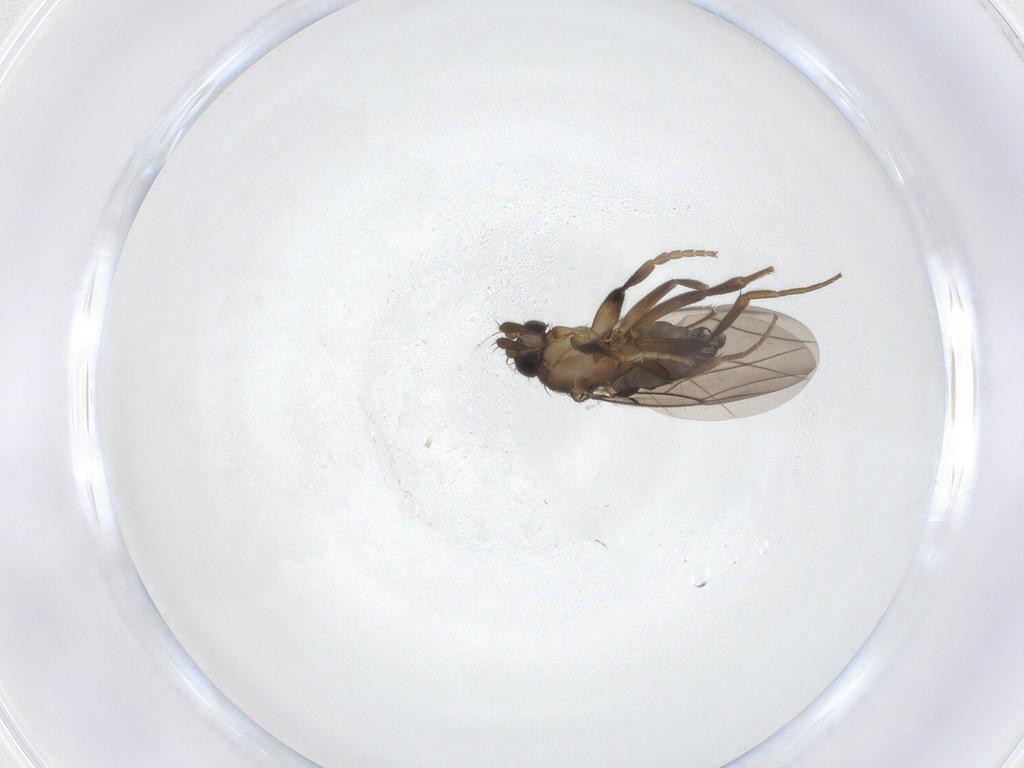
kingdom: Animalia
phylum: Arthropoda
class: Insecta
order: Diptera
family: Phoridae
